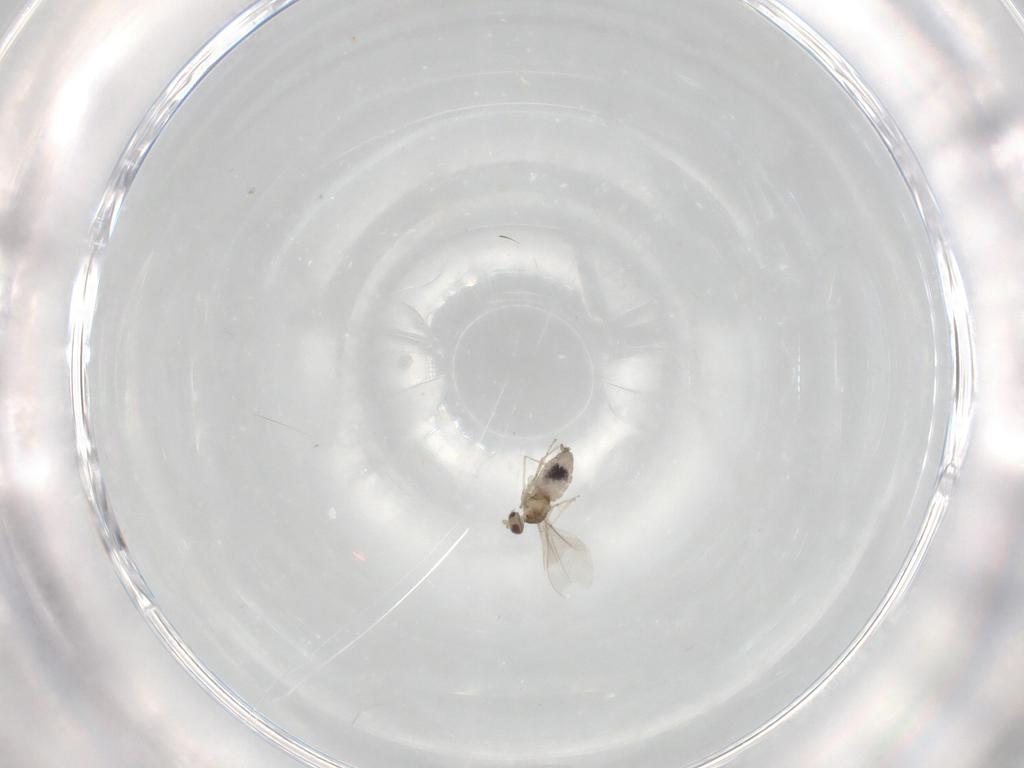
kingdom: Animalia
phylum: Arthropoda
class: Insecta
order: Diptera
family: Cecidomyiidae
